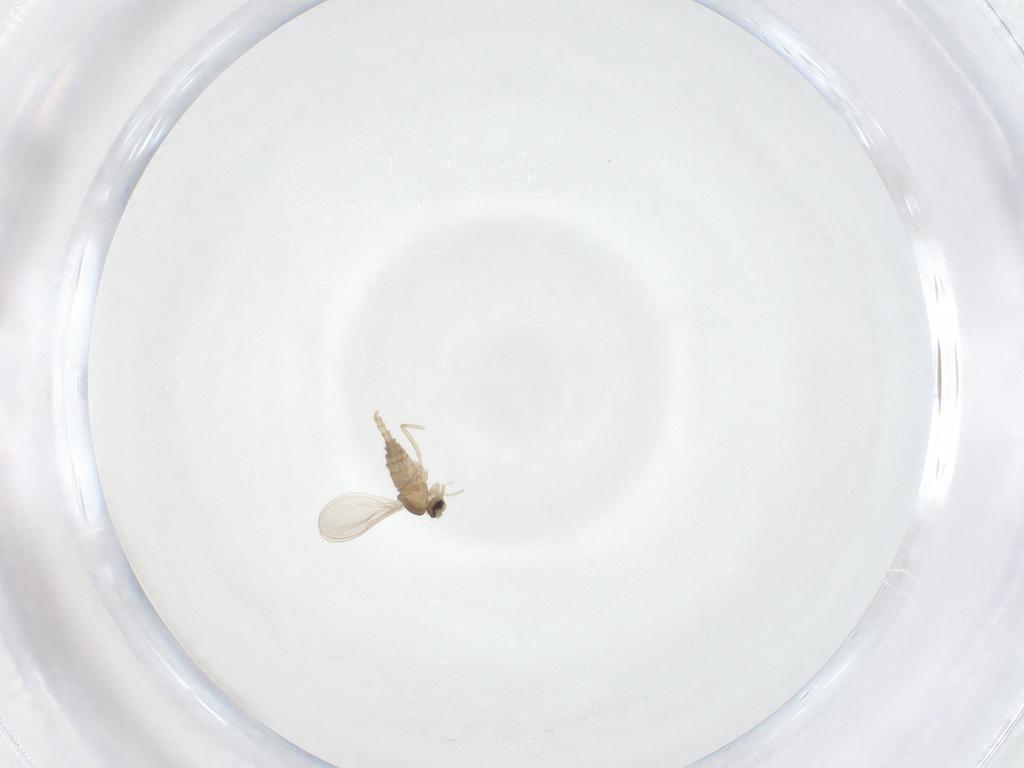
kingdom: Animalia
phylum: Arthropoda
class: Insecta
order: Diptera
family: Cecidomyiidae
